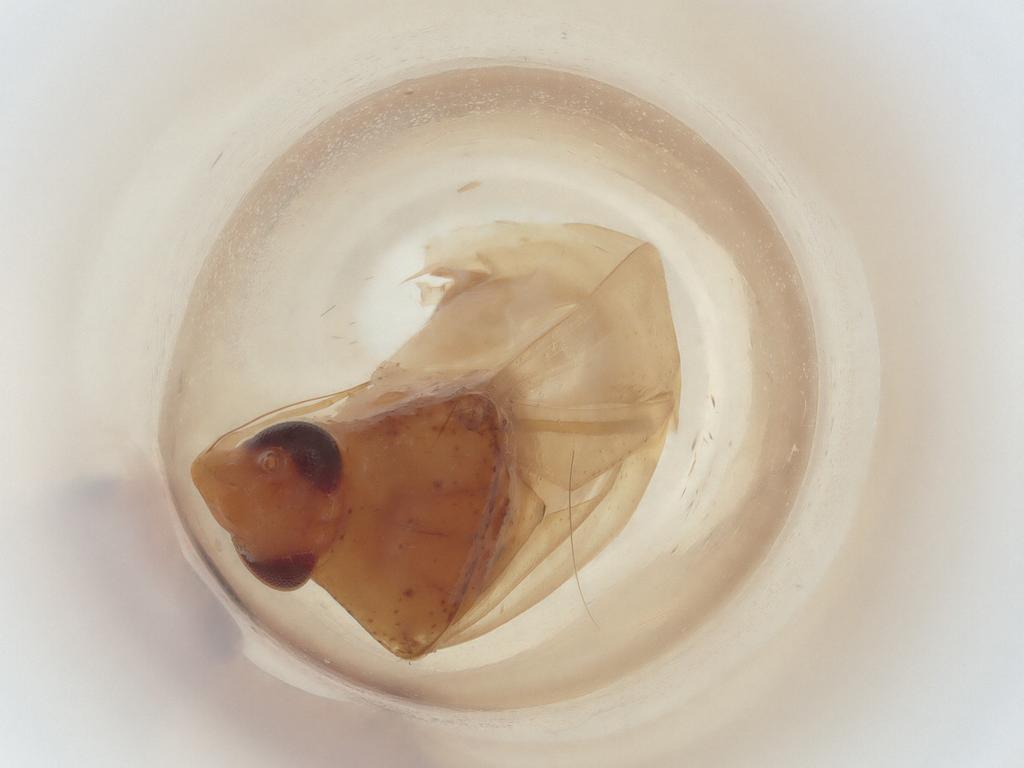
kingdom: Animalia
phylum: Arthropoda
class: Insecta
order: Hemiptera
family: Miridae
